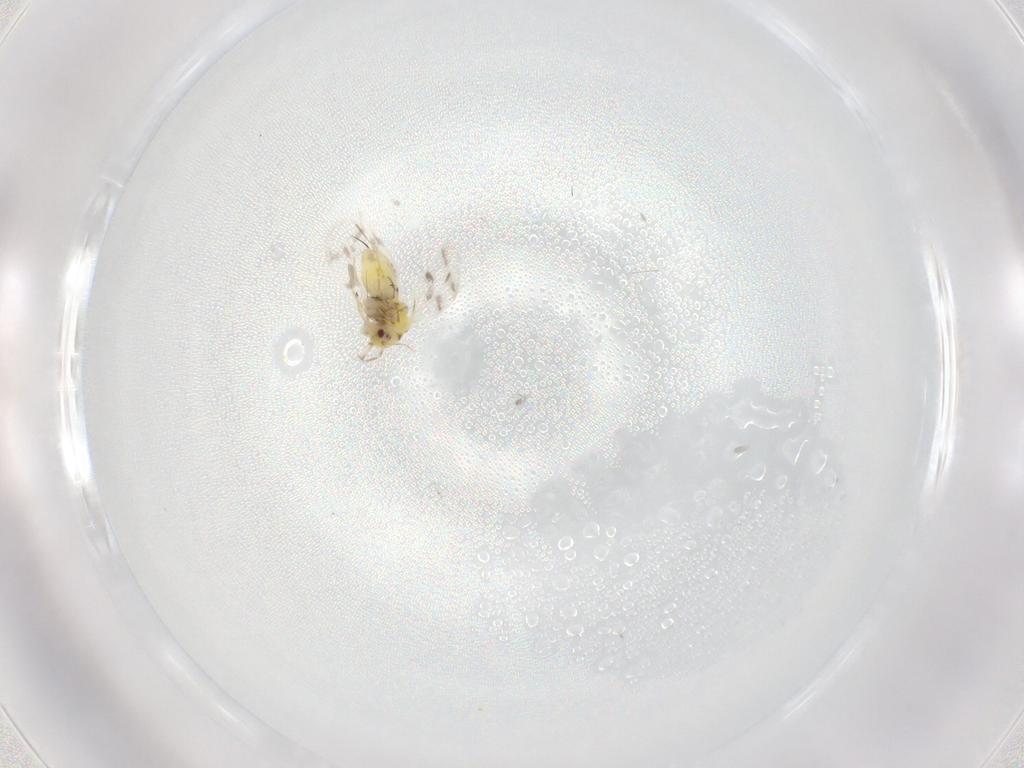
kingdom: Animalia
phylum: Arthropoda
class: Insecta
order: Hemiptera
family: Aleyrodidae
